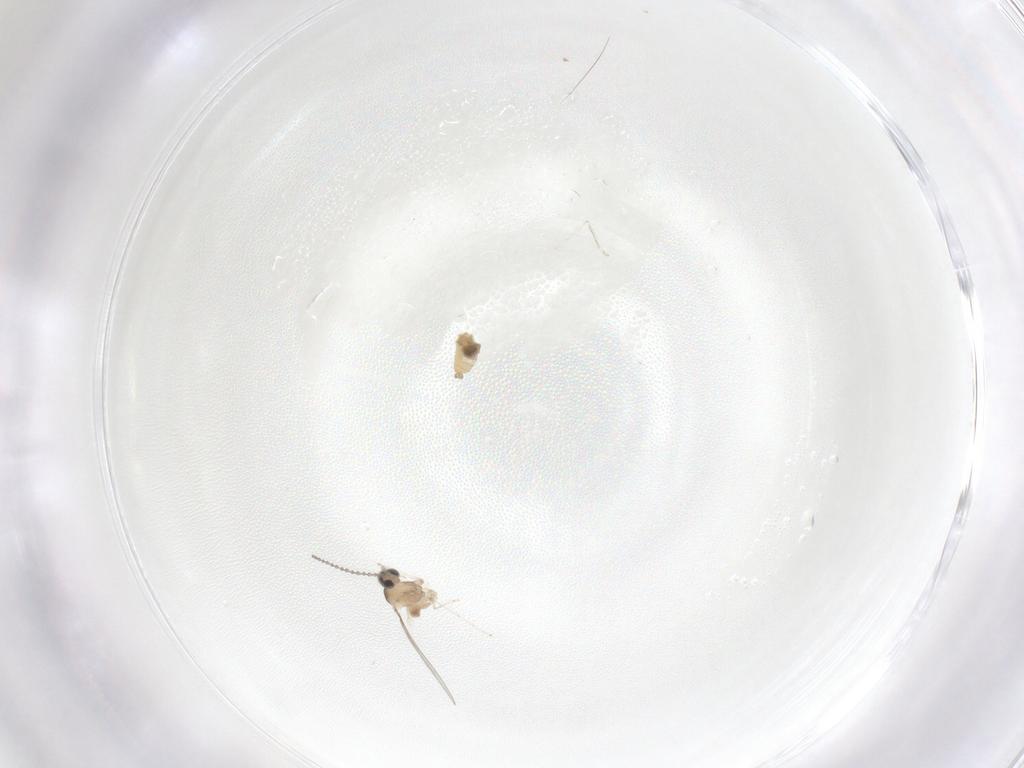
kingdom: Animalia
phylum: Arthropoda
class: Insecta
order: Diptera
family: Cecidomyiidae
